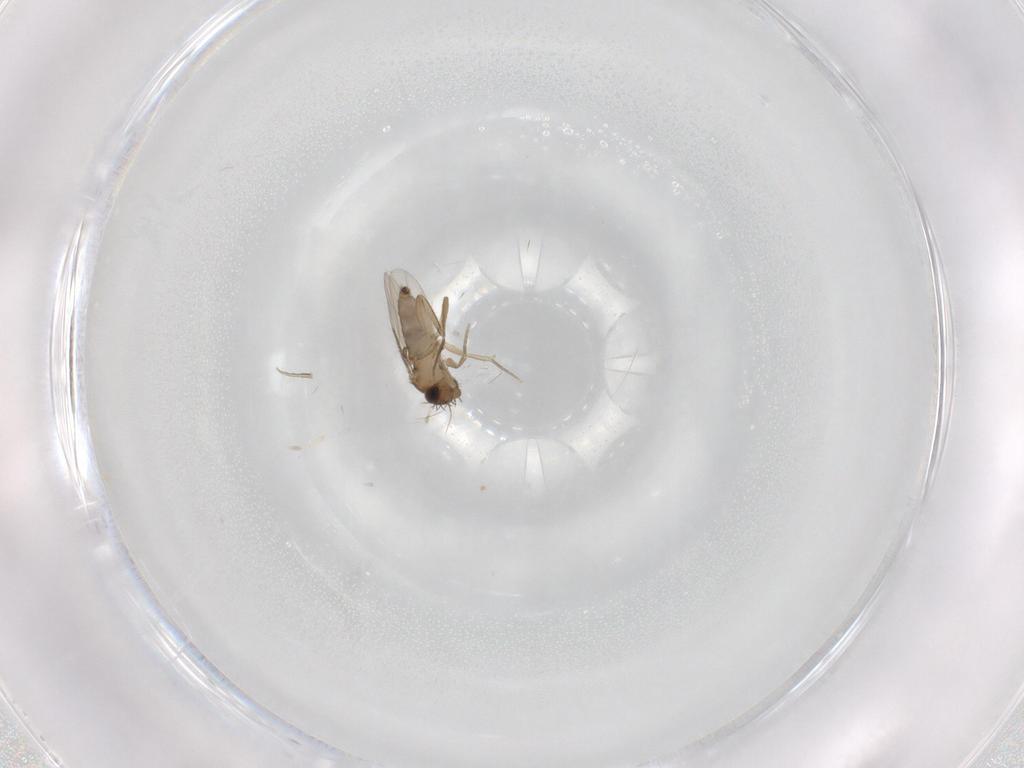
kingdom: Animalia
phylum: Arthropoda
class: Insecta
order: Diptera
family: Phoridae
